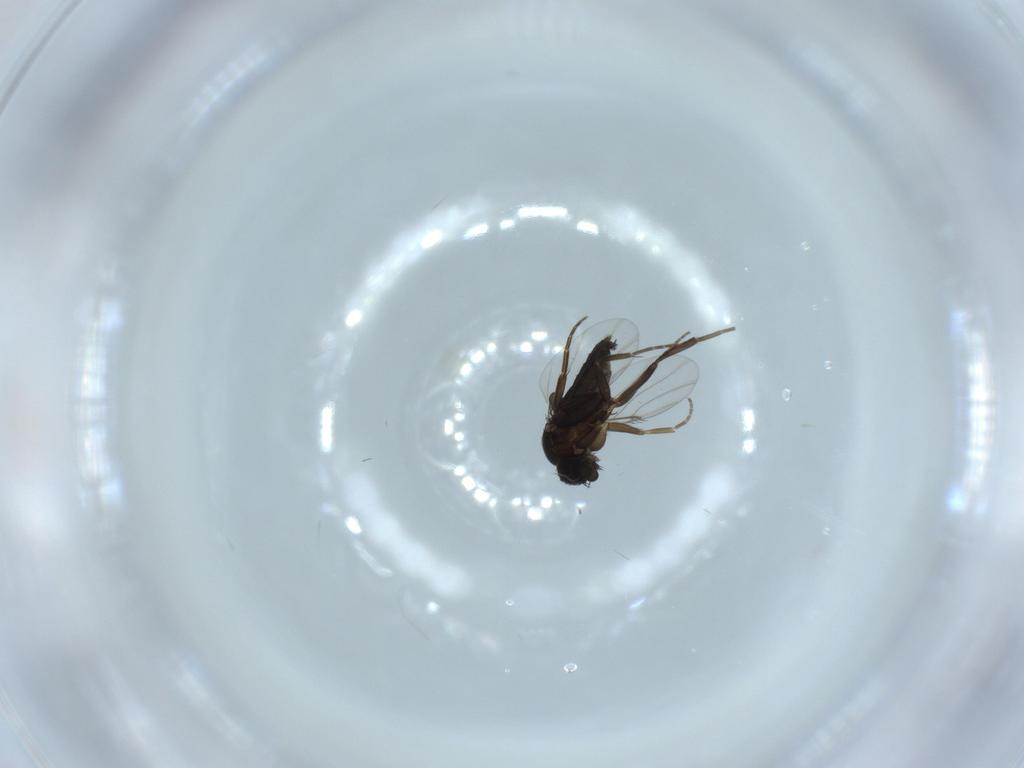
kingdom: Animalia
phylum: Arthropoda
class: Insecta
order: Diptera
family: Phoridae
